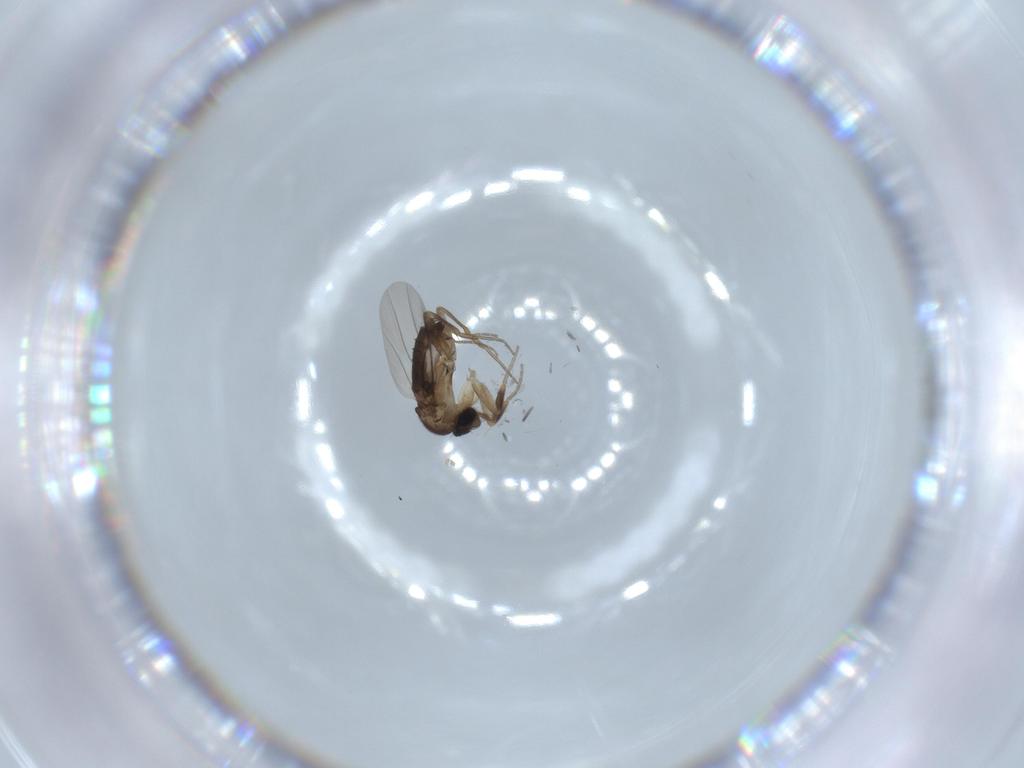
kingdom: Animalia
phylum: Arthropoda
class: Insecta
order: Diptera
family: Phoridae
